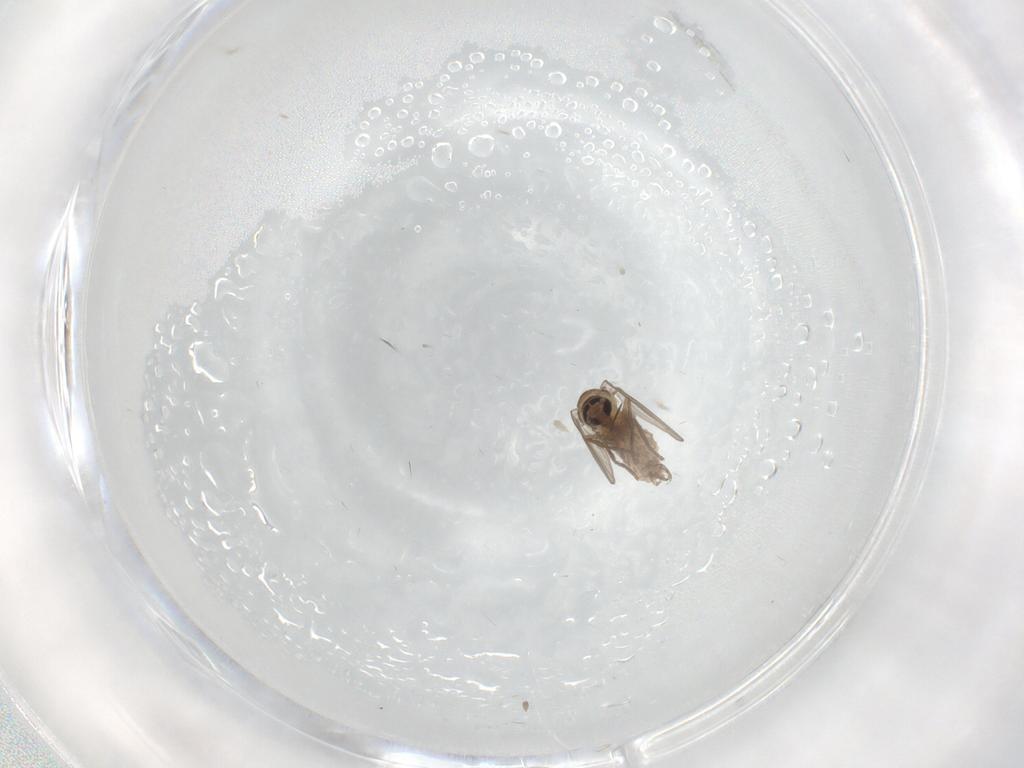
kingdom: Animalia
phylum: Arthropoda
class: Insecta
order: Diptera
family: Psychodidae
